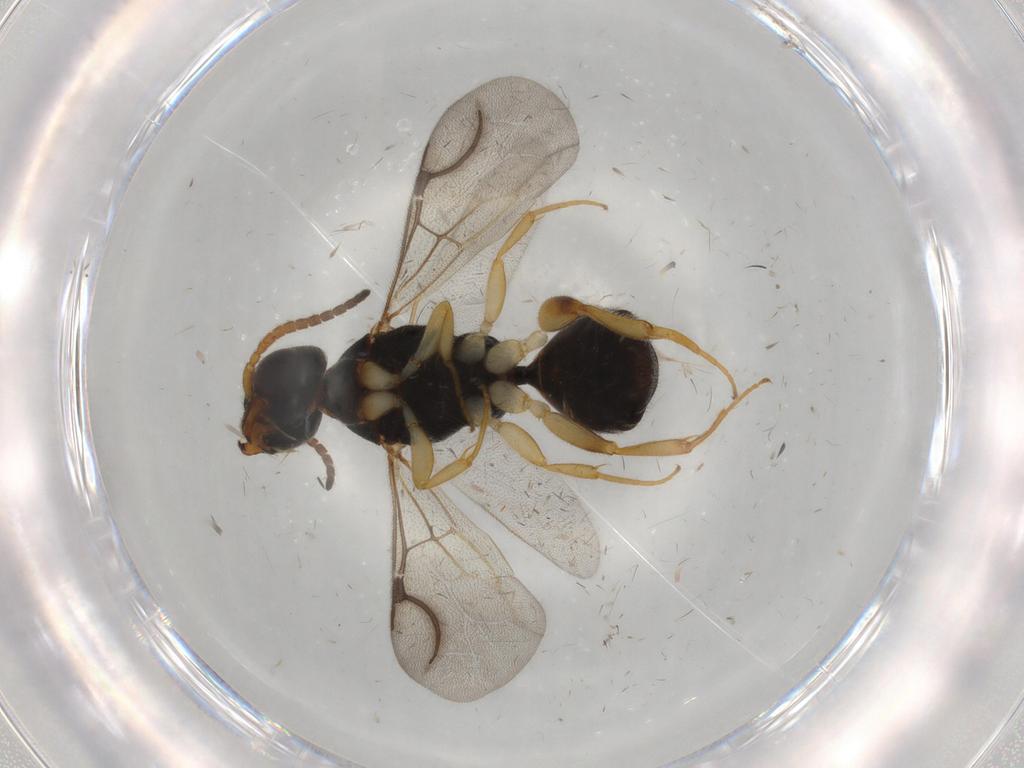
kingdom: Animalia
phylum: Arthropoda
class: Insecta
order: Hymenoptera
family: Bethylidae
